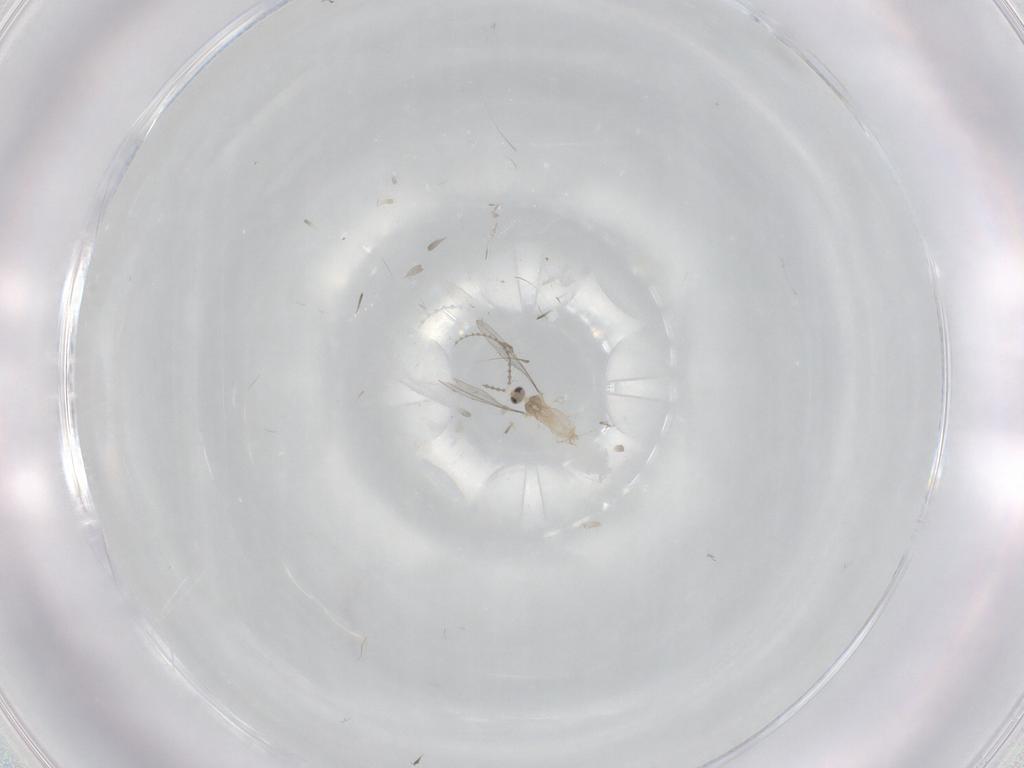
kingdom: Animalia
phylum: Arthropoda
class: Insecta
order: Diptera
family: Cecidomyiidae
